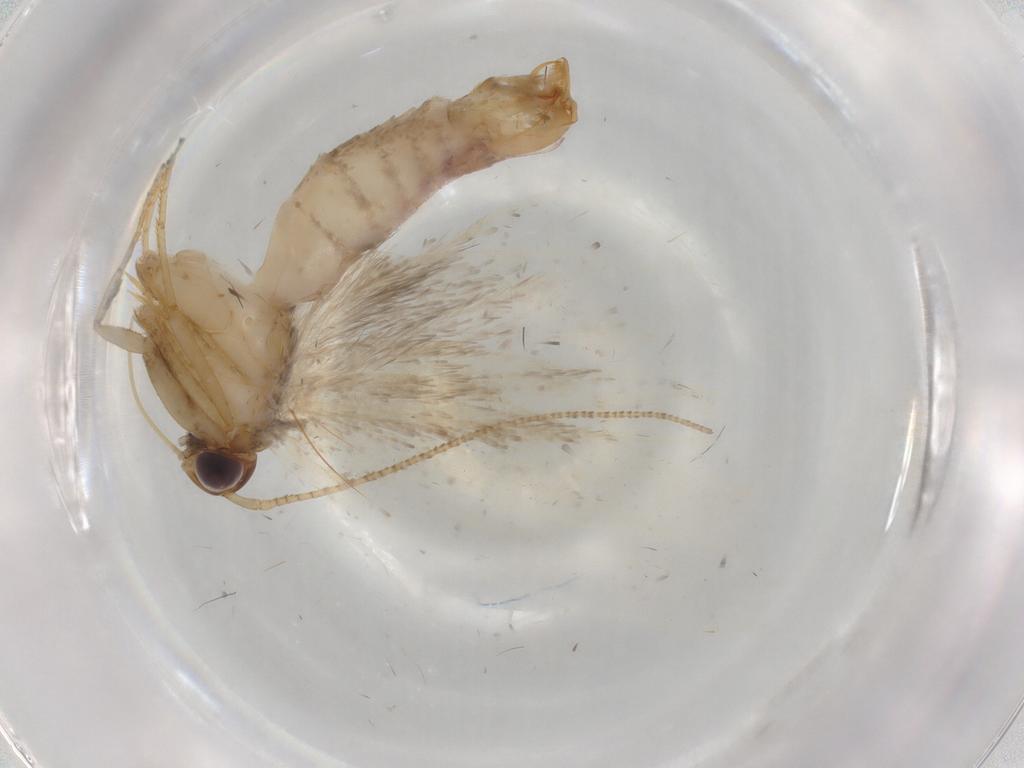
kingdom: Animalia
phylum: Arthropoda
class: Insecta
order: Lepidoptera
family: Gelechiidae
